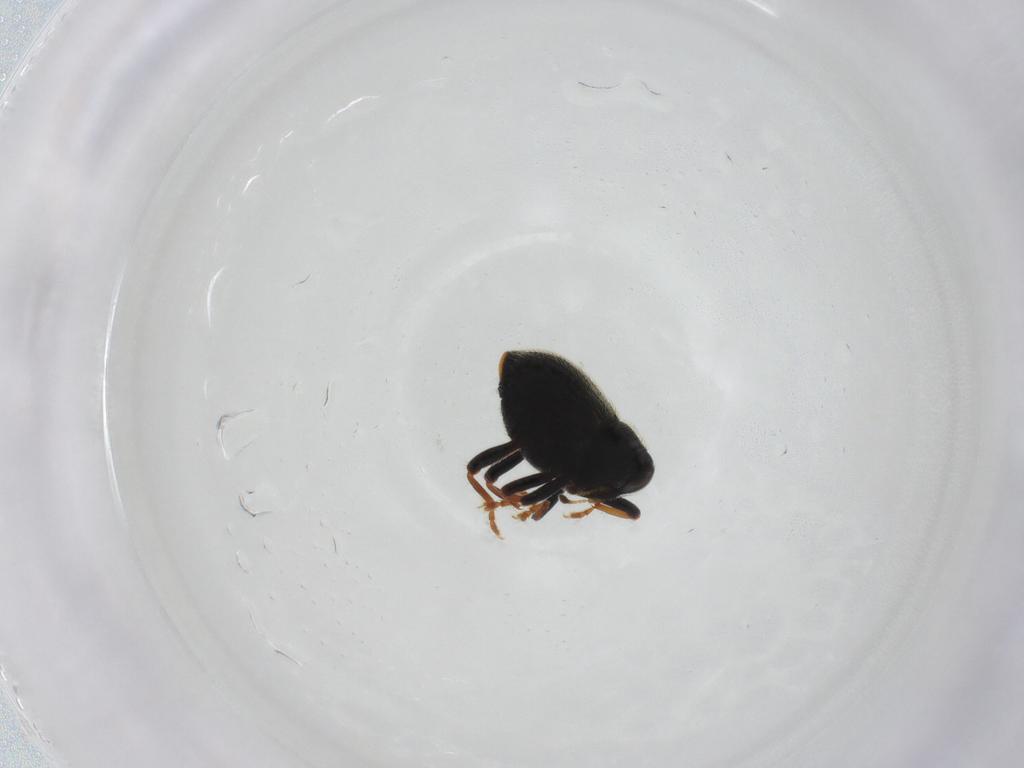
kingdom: Animalia
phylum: Arthropoda
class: Insecta
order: Coleoptera
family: Curculionidae
